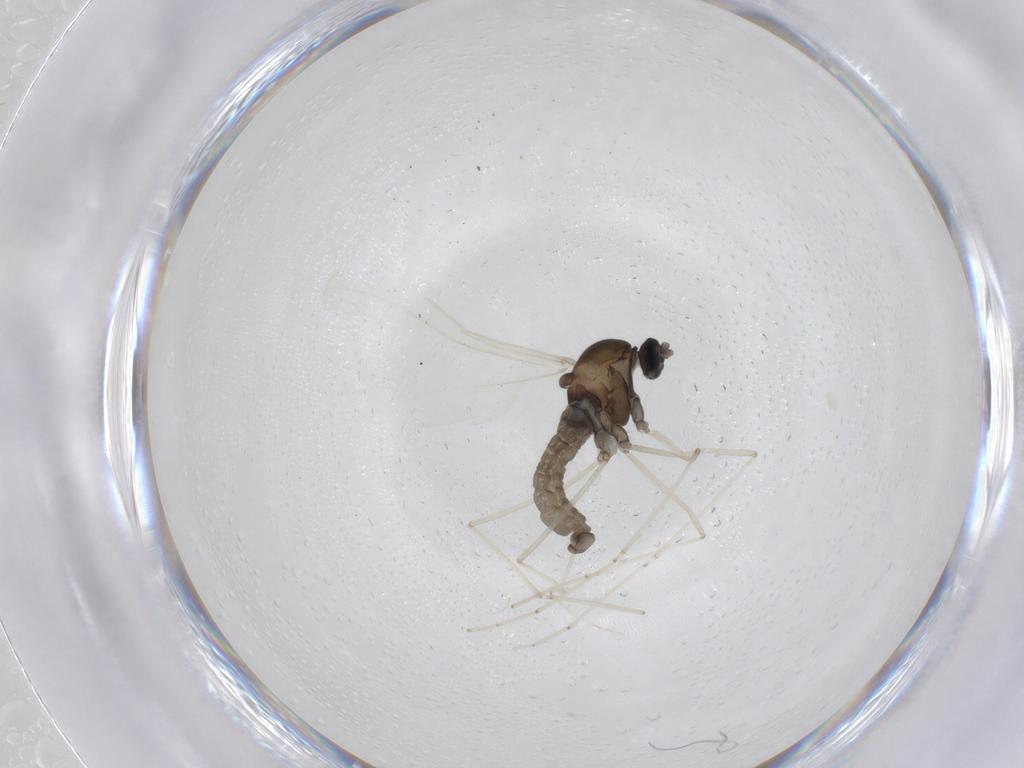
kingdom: Animalia
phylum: Arthropoda
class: Insecta
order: Diptera
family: Cecidomyiidae
